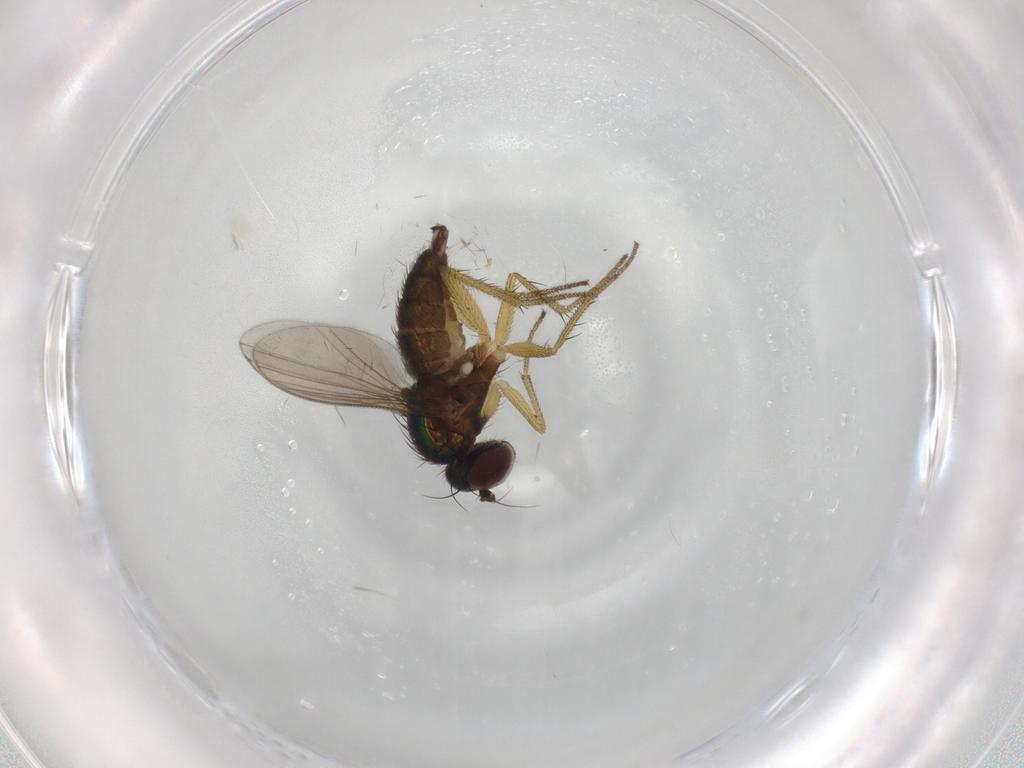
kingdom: Animalia
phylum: Arthropoda
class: Insecta
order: Diptera
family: Chironomidae
